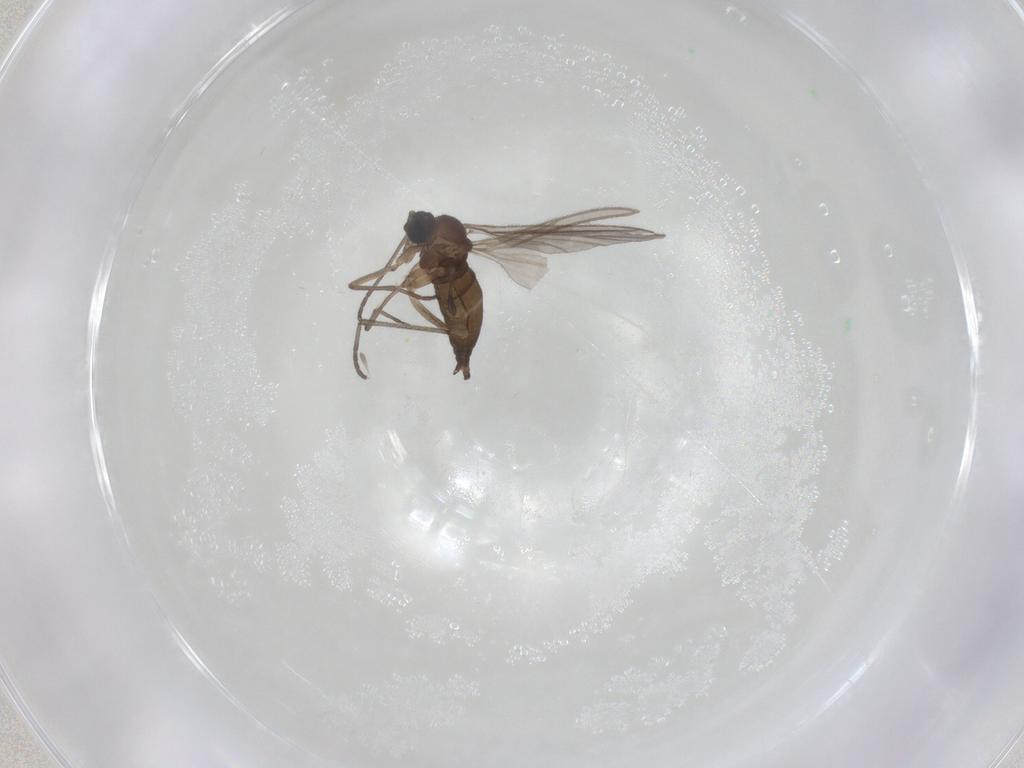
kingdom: Animalia
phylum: Arthropoda
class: Insecta
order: Diptera
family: Sciaridae
